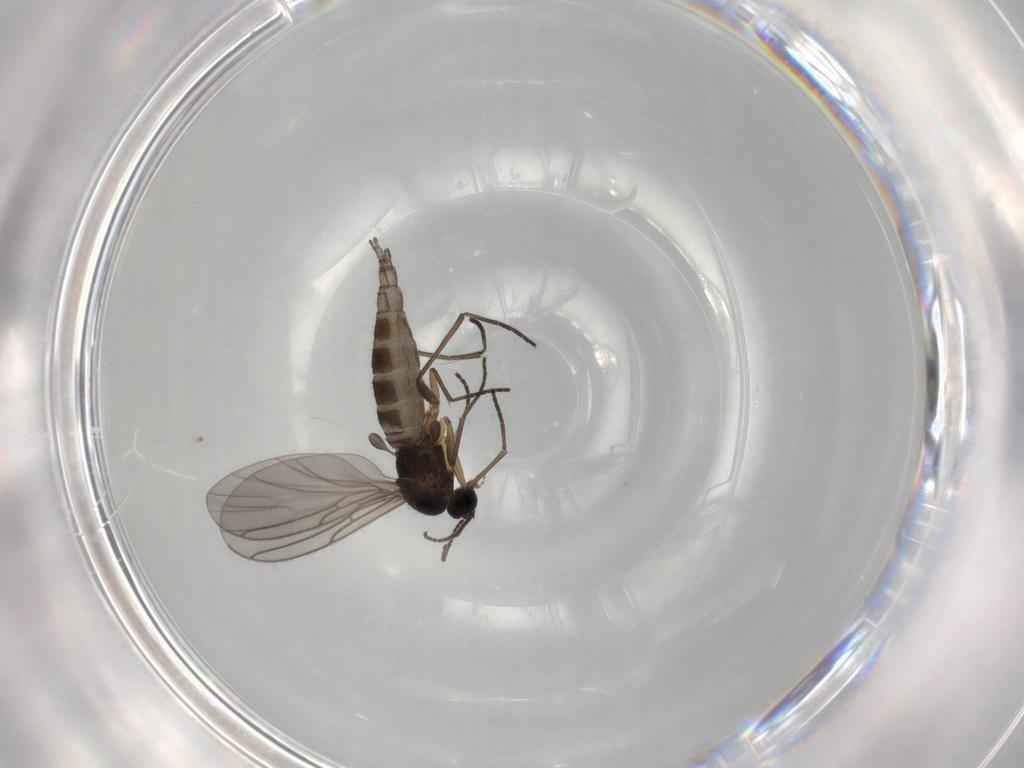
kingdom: Animalia
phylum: Arthropoda
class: Insecta
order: Diptera
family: Sciaridae
